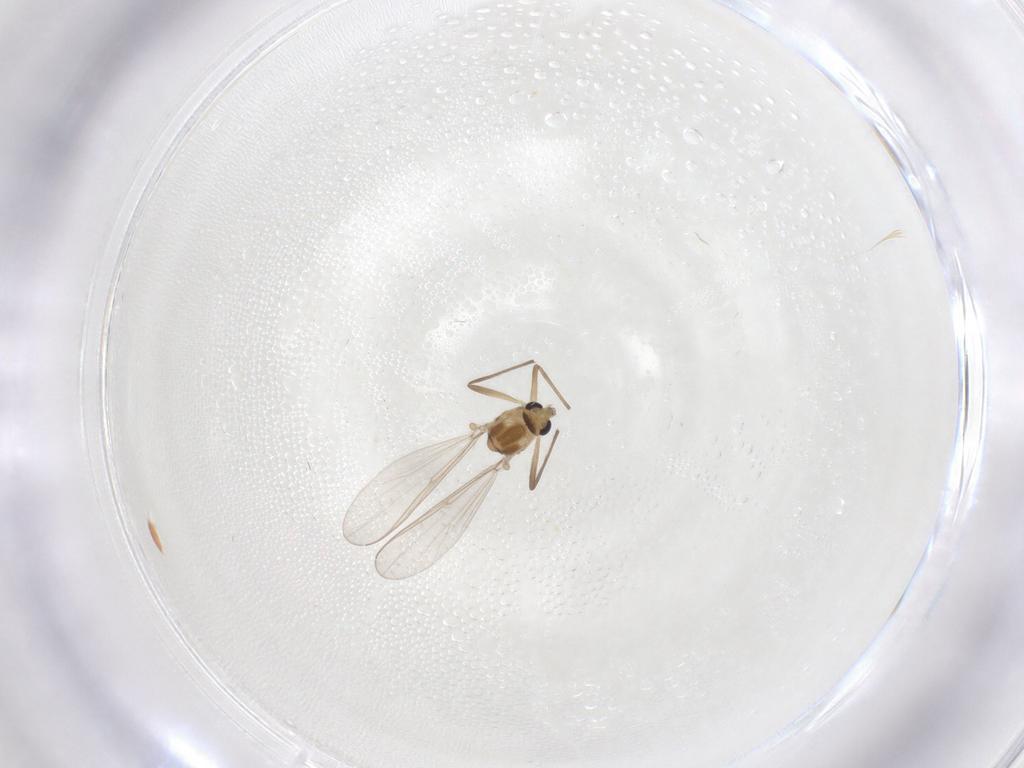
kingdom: Animalia
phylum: Arthropoda
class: Insecta
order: Diptera
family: Chironomidae
